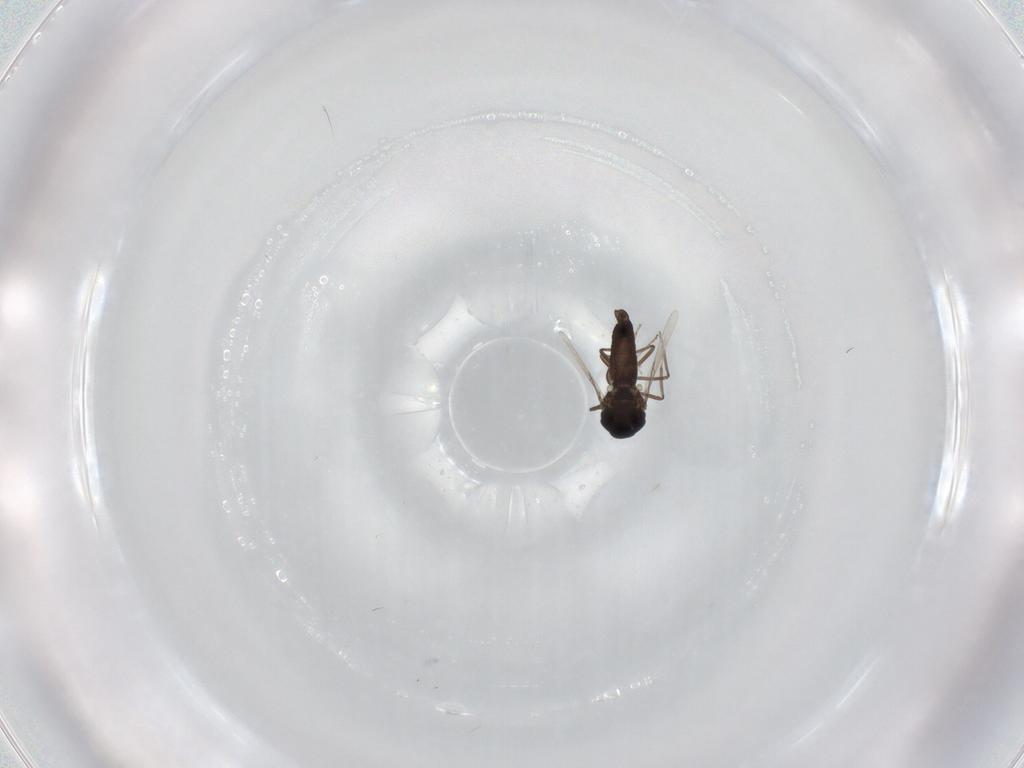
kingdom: Animalia
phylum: Arthropoda
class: Insecta
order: Diptera
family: Ceratopogonidae
